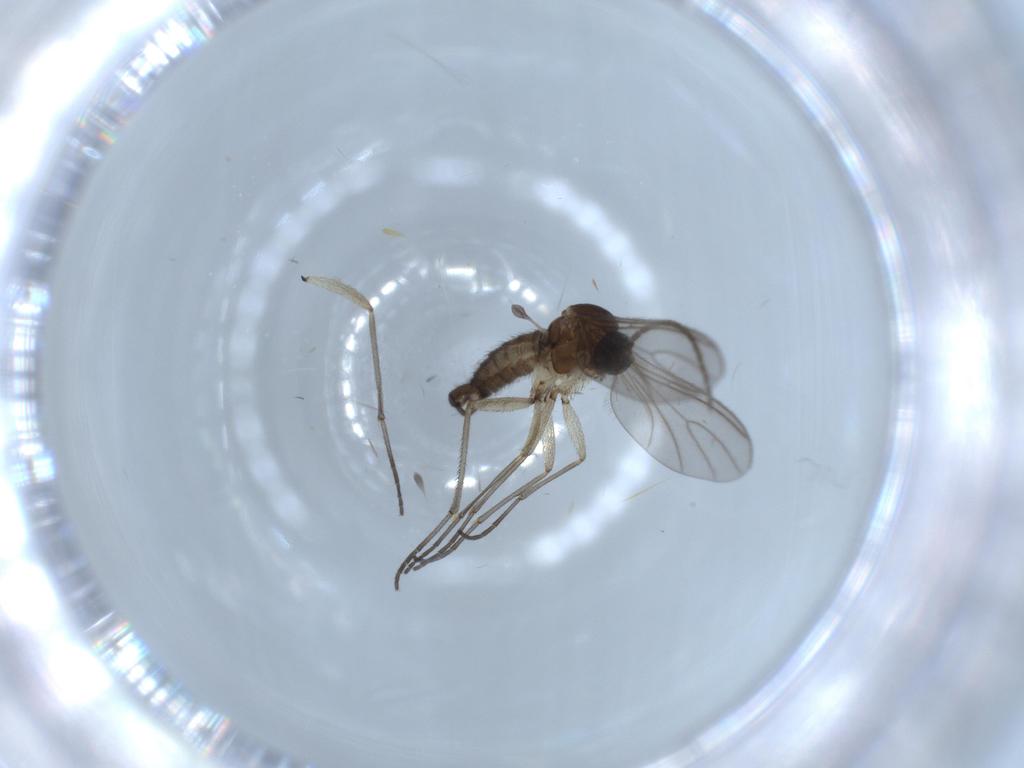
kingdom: Animalia
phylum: Arthropoda
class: Insecta
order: Diptera
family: Sciaridae
